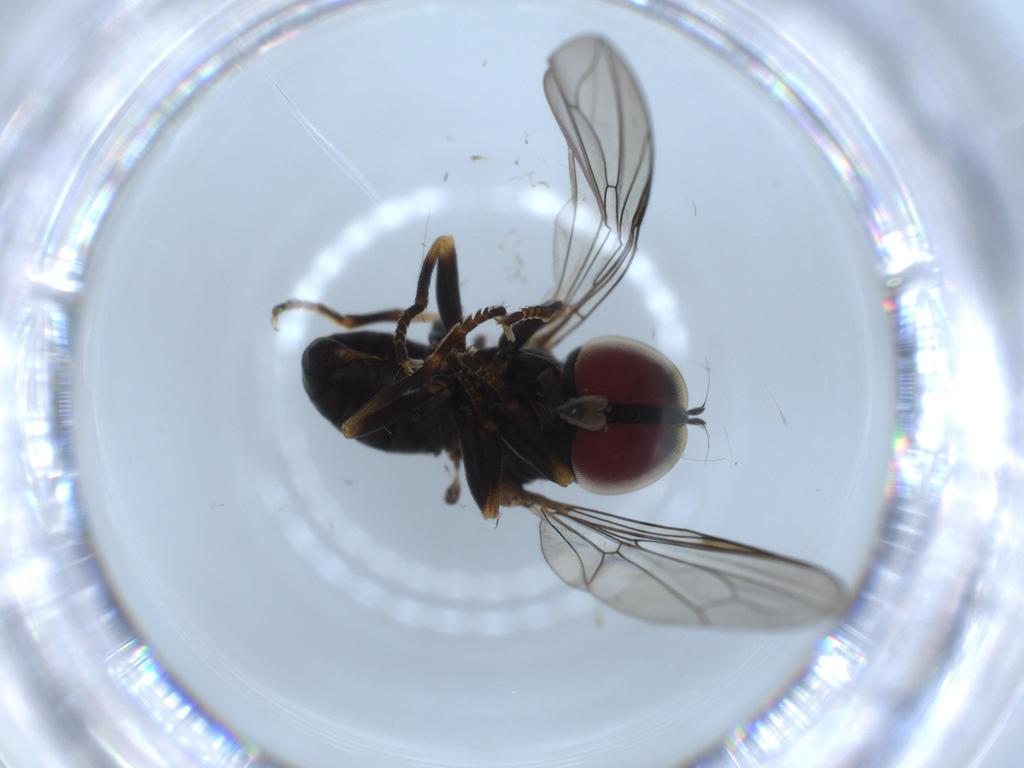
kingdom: Animalia
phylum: Arthropoda
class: Insecta
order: Diptera
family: Pipunculidae
